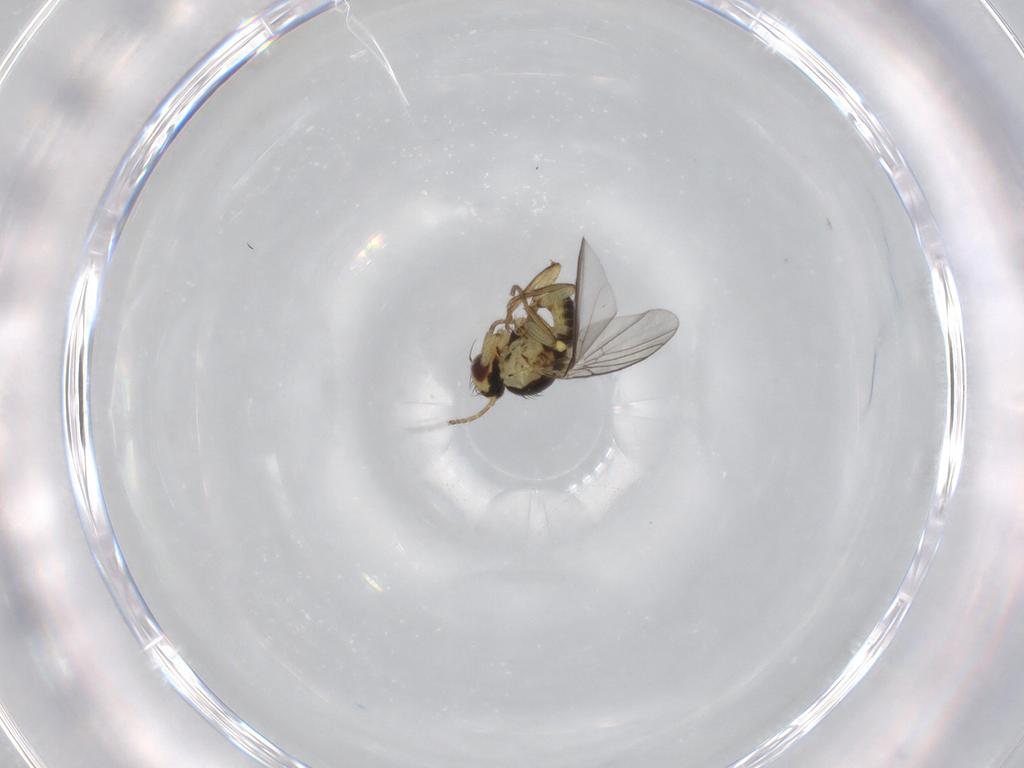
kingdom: Animalia
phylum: Arthropoda
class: Insecta
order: Diptera
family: Agromyzidae
